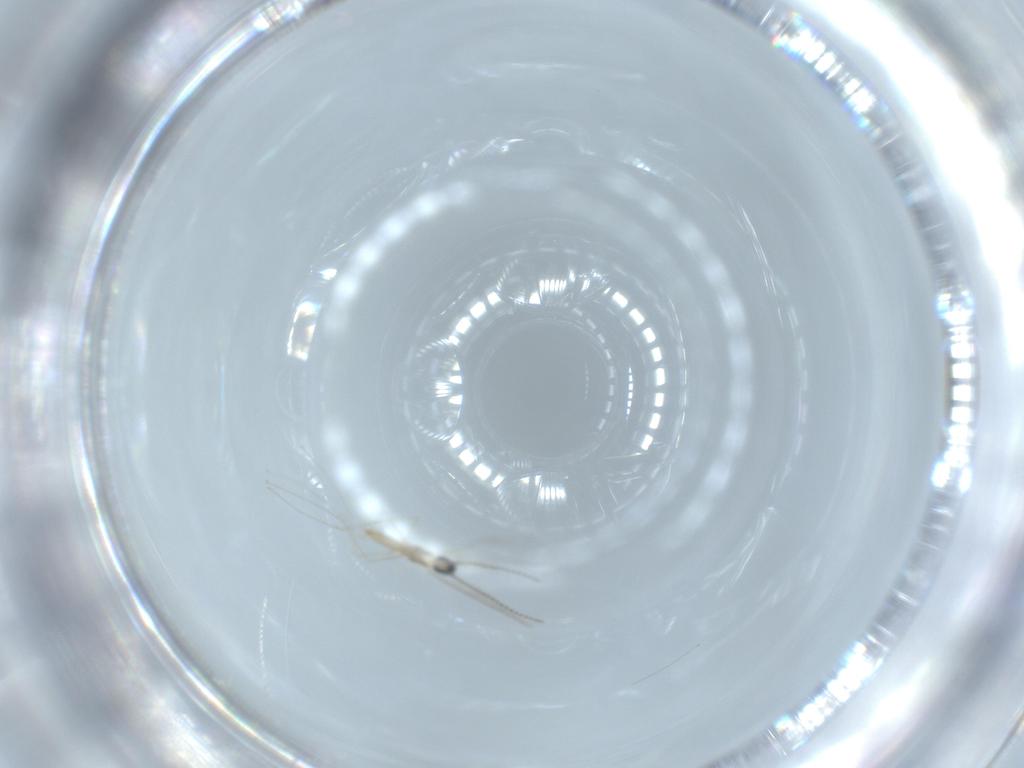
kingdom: Animalia
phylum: Arthropoda
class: Insecta
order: Diptera
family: Cecidomyiidae
